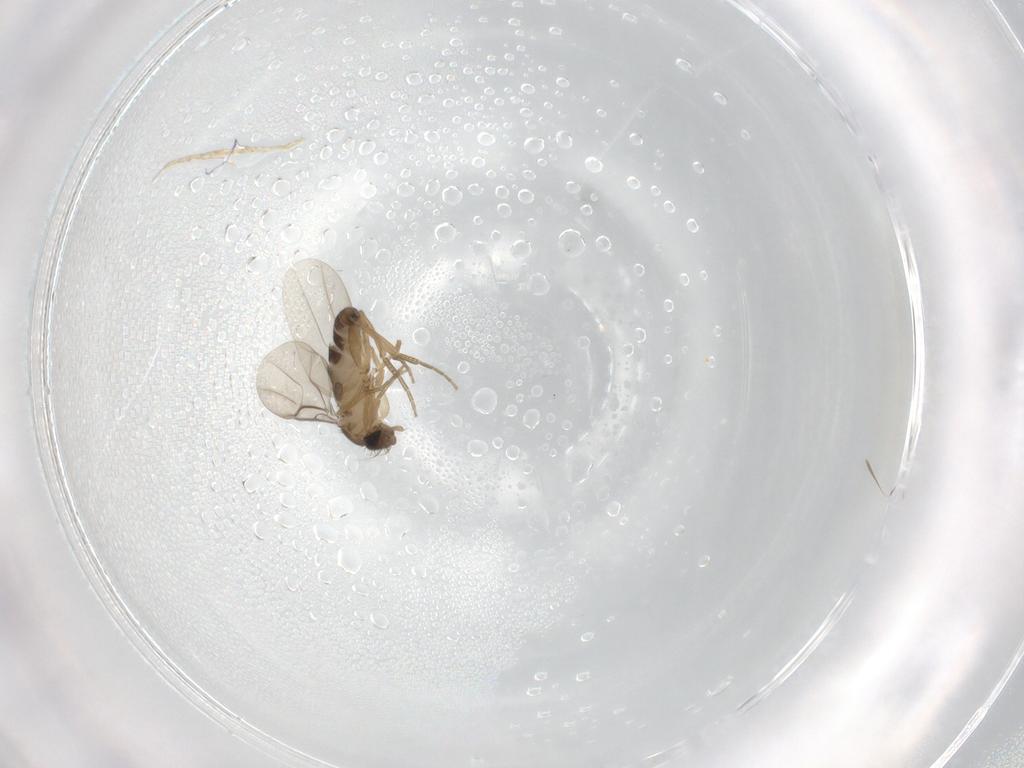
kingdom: Animalia
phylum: Arthropoda
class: Insecta
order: Diptera
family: Phoridae
